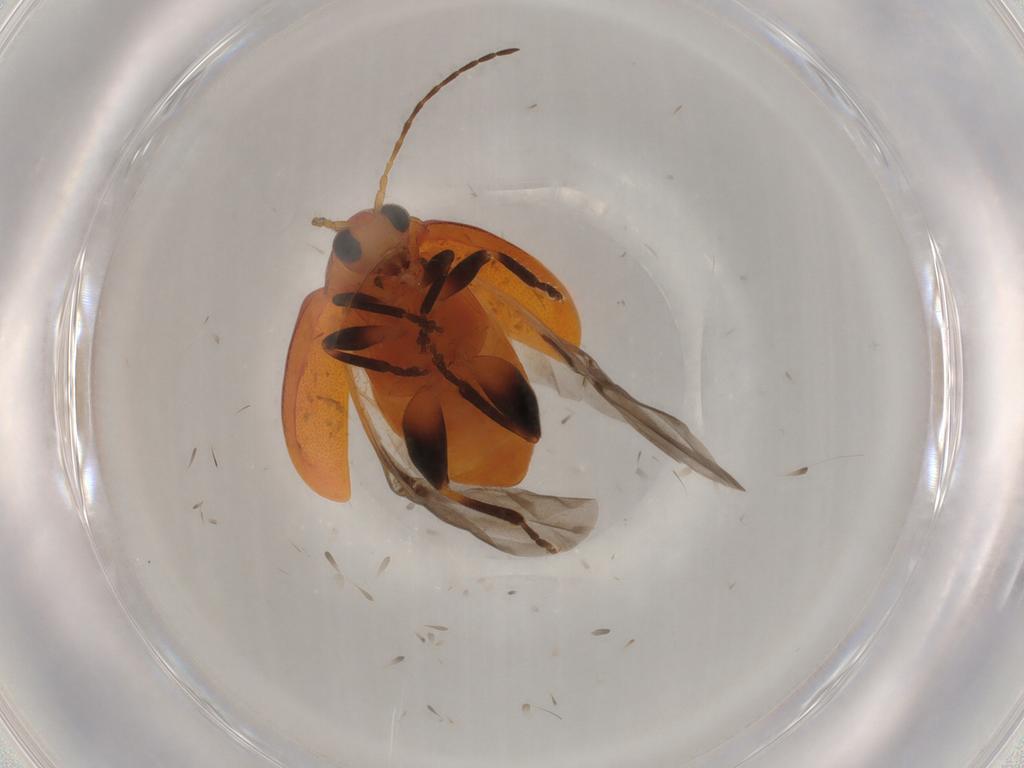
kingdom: Animalia
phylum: Arthropoda
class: Insecta
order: Coleoptera
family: Chrysomelidae
